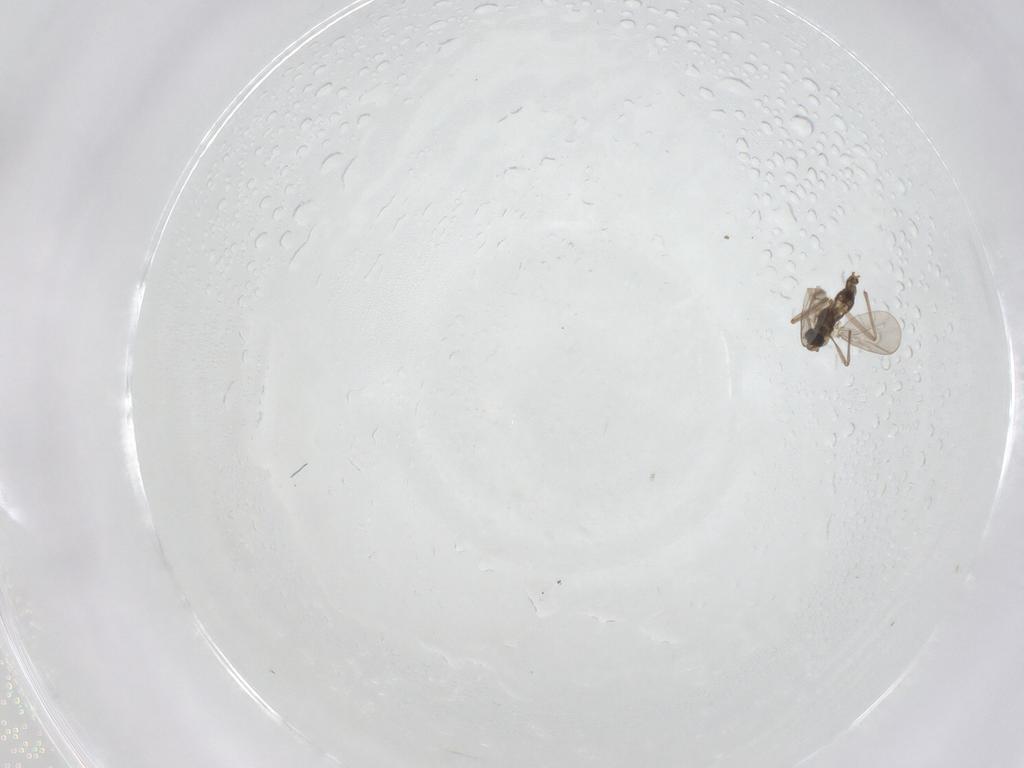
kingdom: Animalia
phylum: Arthropoda
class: Insecta
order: Diptera
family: Chironomidae
